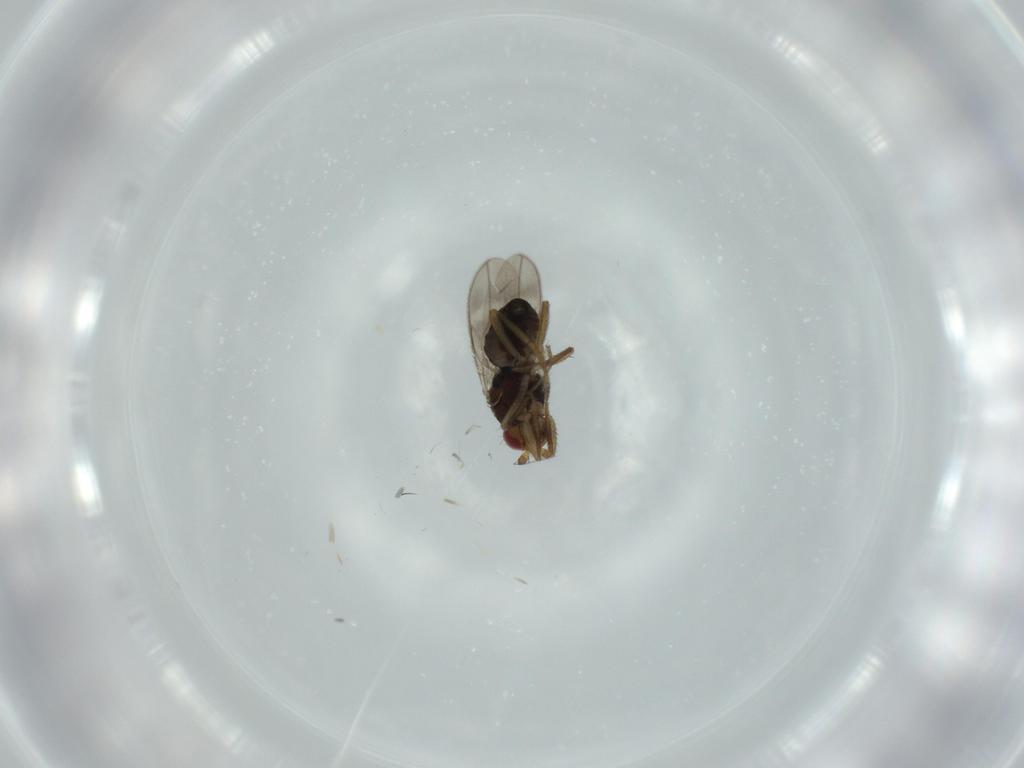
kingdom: Animalia
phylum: Arthropoda
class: Insecta
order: Diptera
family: Sphaeroceridae
